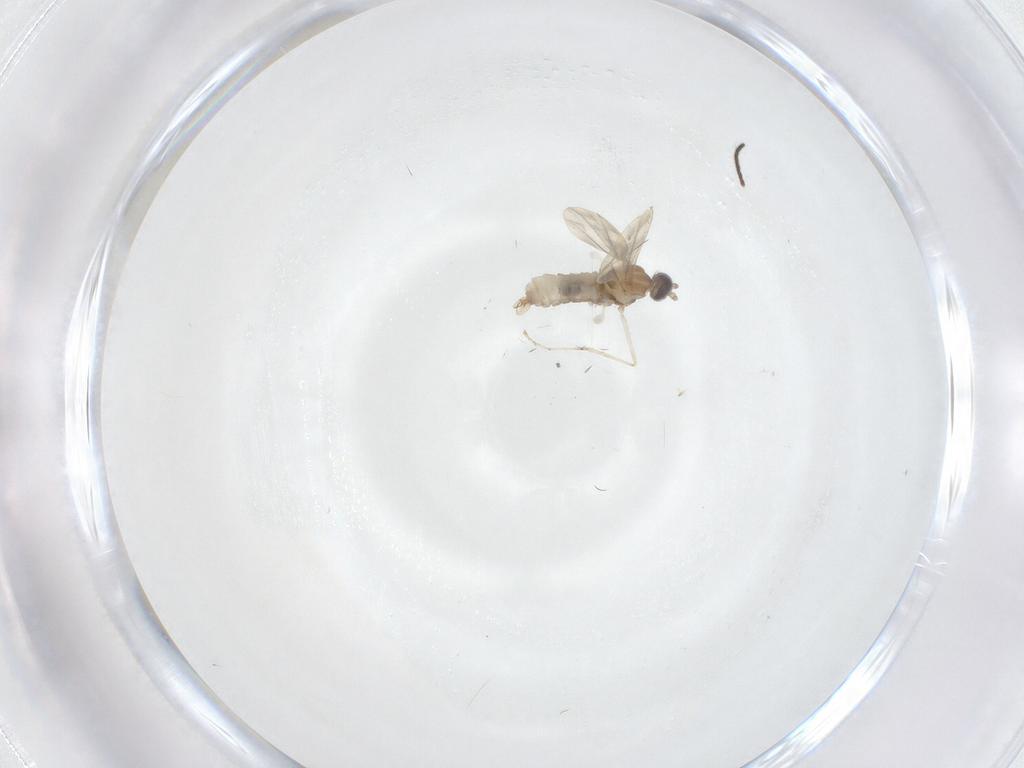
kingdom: Animalia
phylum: Arthropoda
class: Insecta
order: Diptera
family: Cecidomyiidae
